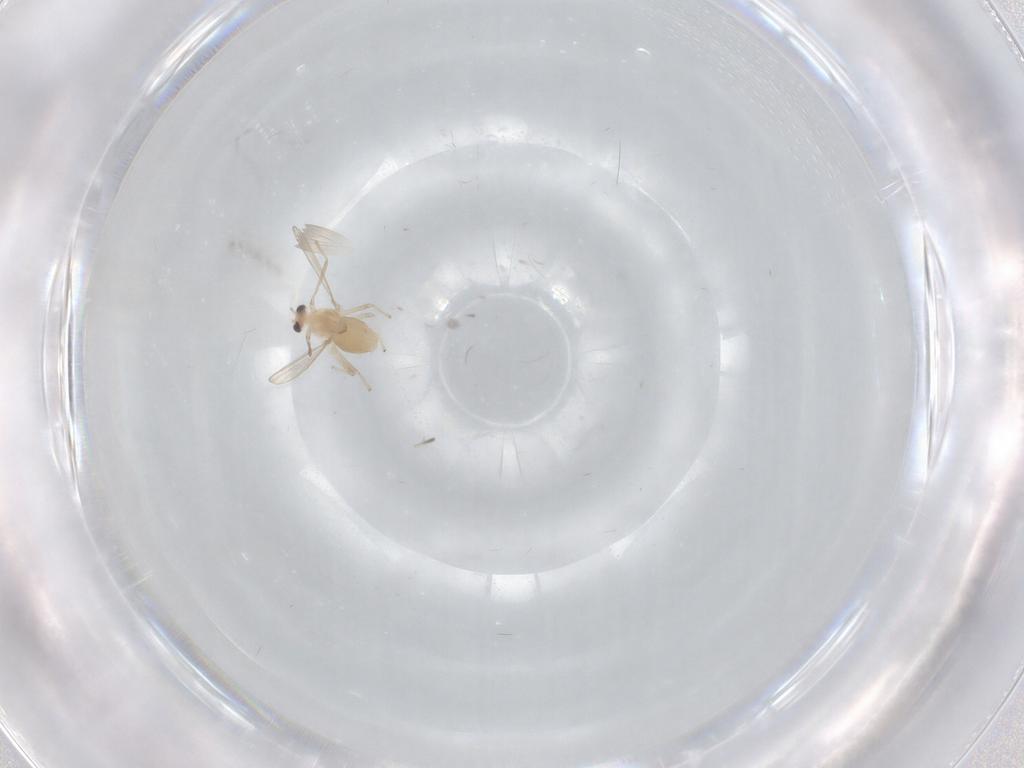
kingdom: Animalia
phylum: Arthropoda
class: Insecta
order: Diptera
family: Chironomidae
